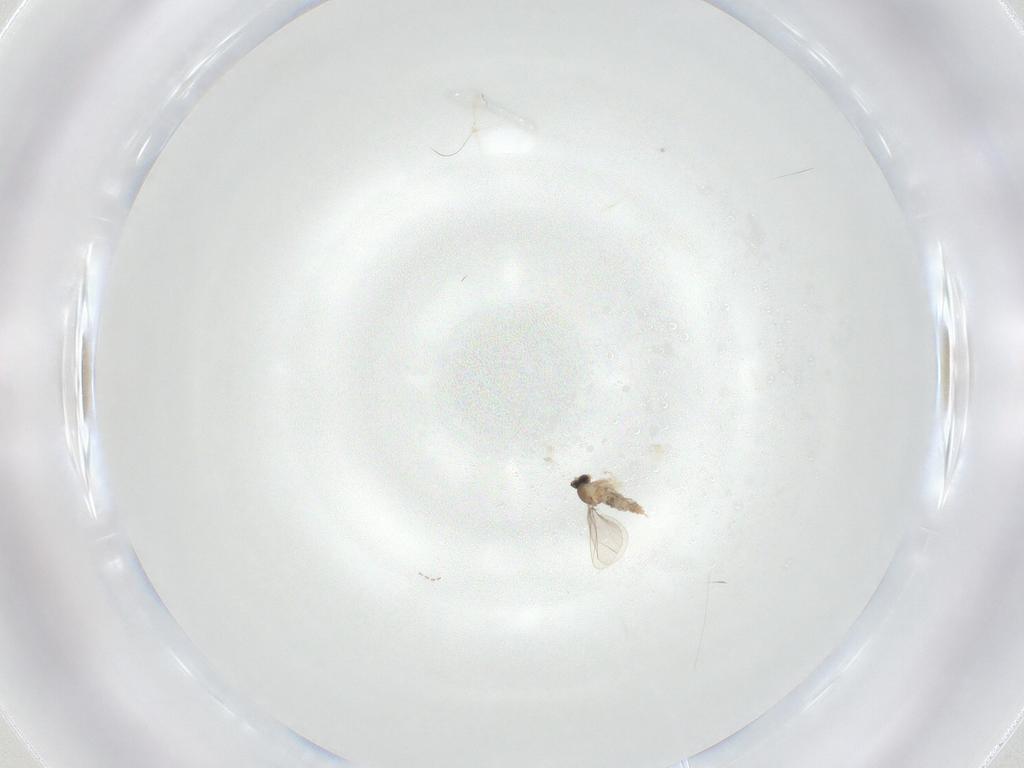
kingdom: Animalia
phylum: Arthropoda
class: Insecta
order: Diptera
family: Cecidomyiidae
